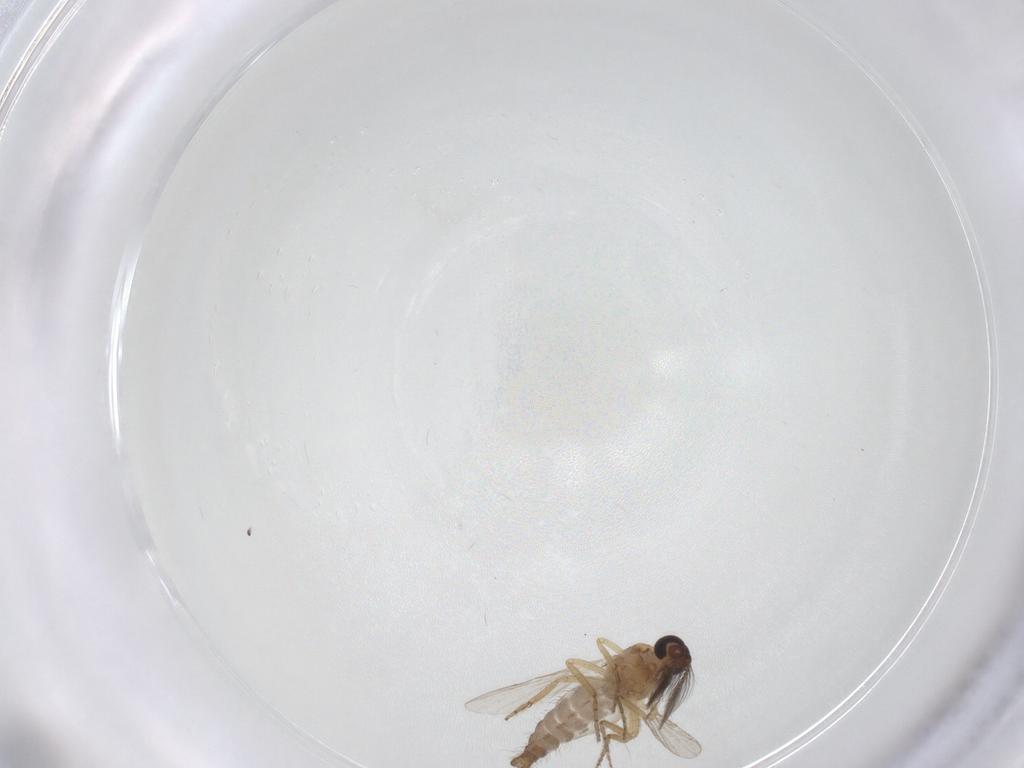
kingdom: Animalia
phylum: Arthropoda
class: Insecta
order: Diptera
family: Ceratopogonidae
